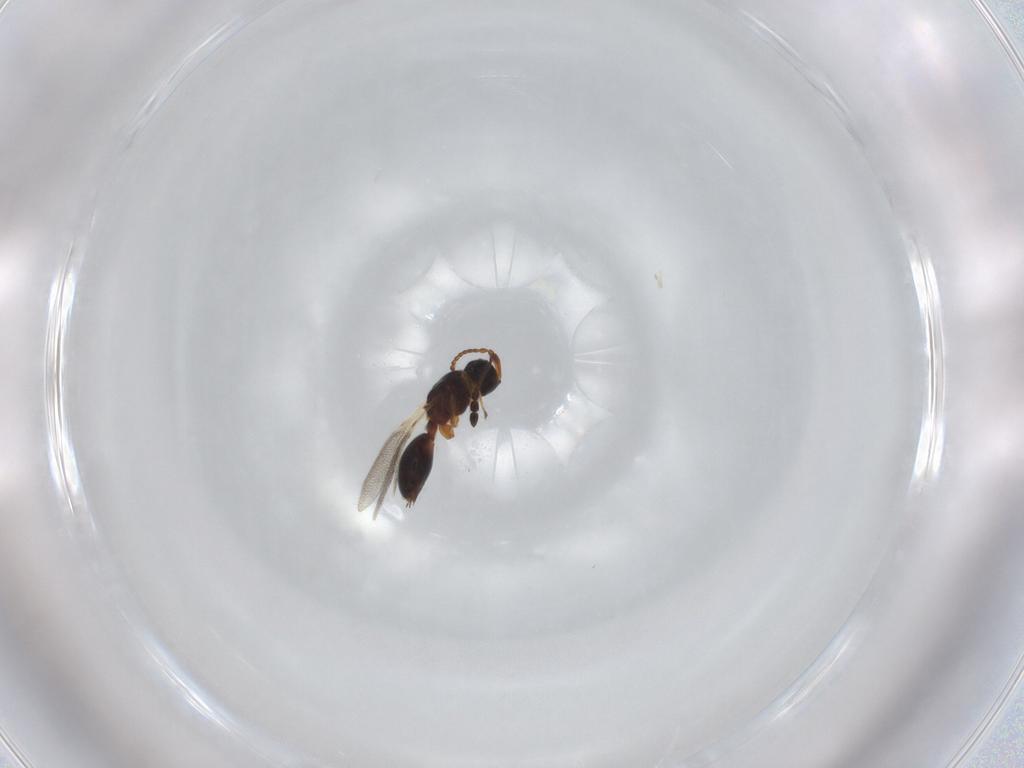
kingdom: Animalia
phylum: Arthropoda
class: Insecta
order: Hymenoptera
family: Diapriidae
